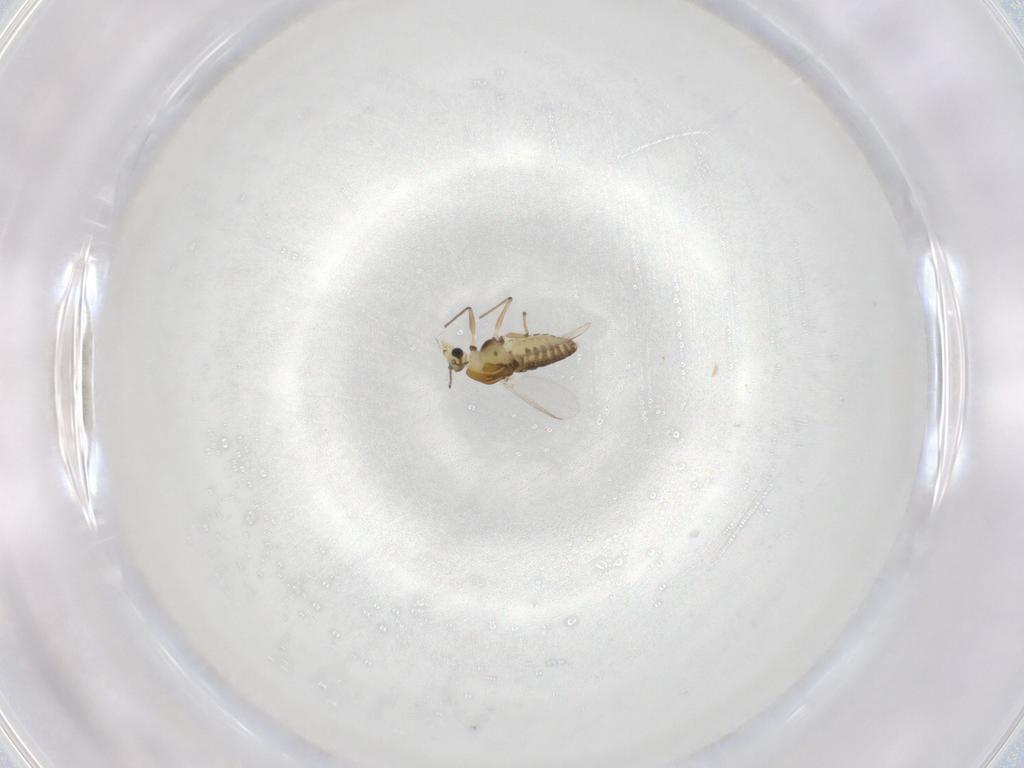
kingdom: Animalia
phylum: Arthropoda
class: Insecta
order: Diptera
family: Chironomidae
